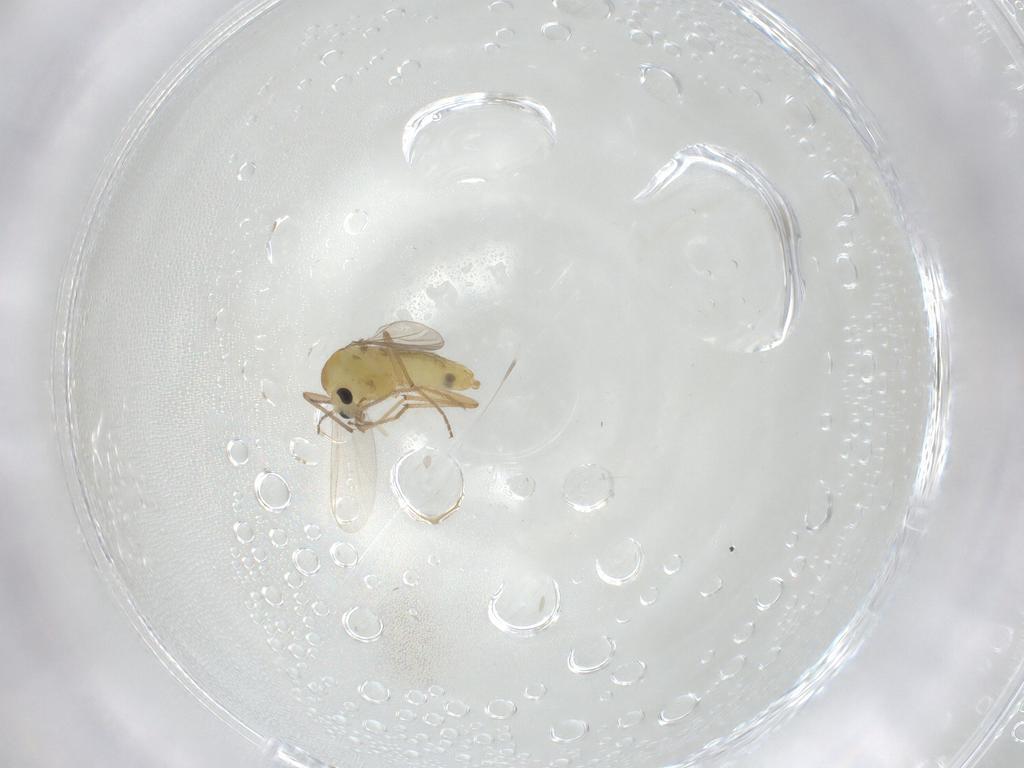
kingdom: Animalia
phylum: Arthropoda
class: Insecta
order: Diptera
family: Chironomidae
